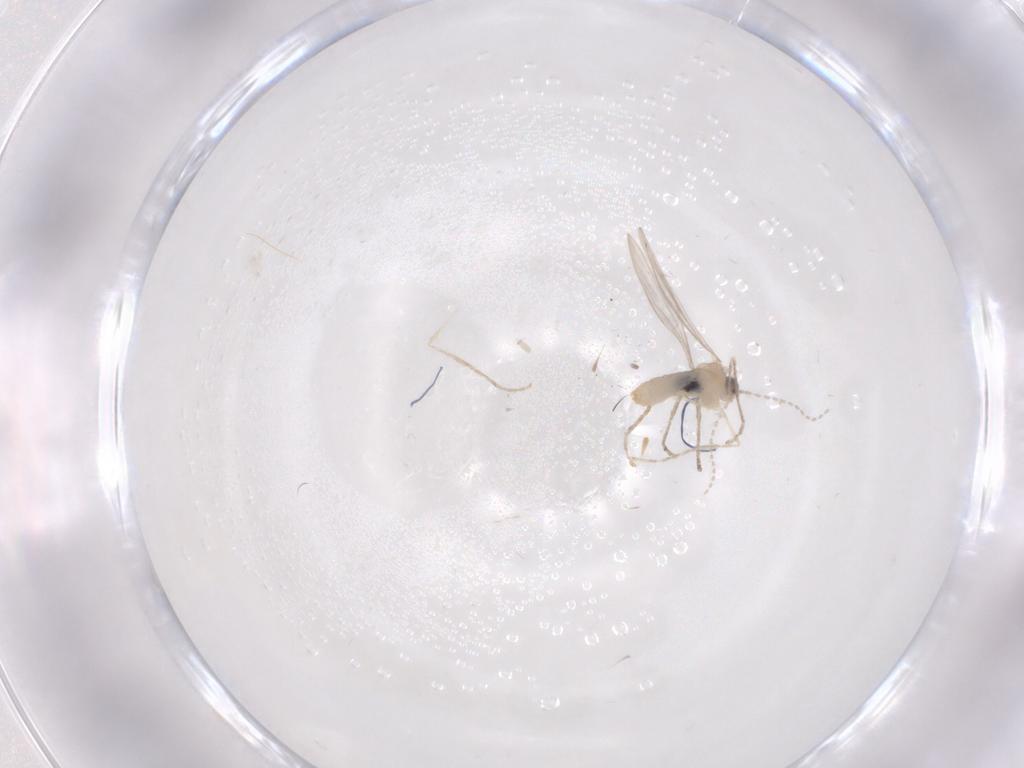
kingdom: Animalia
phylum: Arthropoda
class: Insecta
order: Diptera
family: Cecidomyiidae
